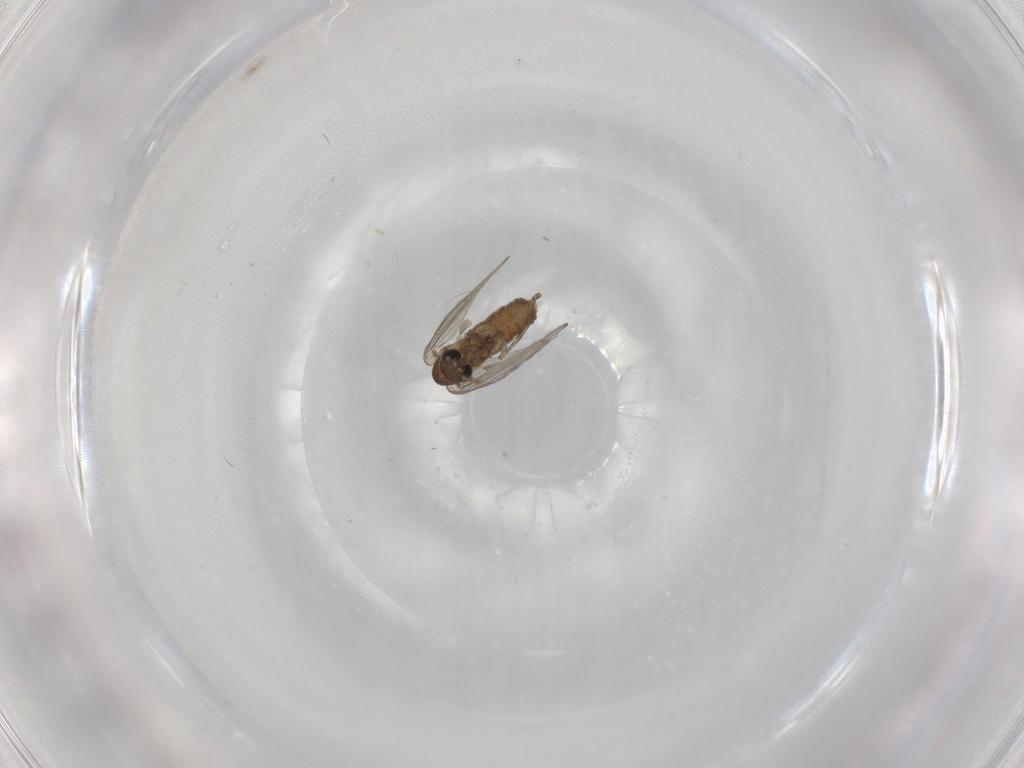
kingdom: Animalia
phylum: Arthropoda
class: Insecta
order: Diptera
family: Psychodidae
